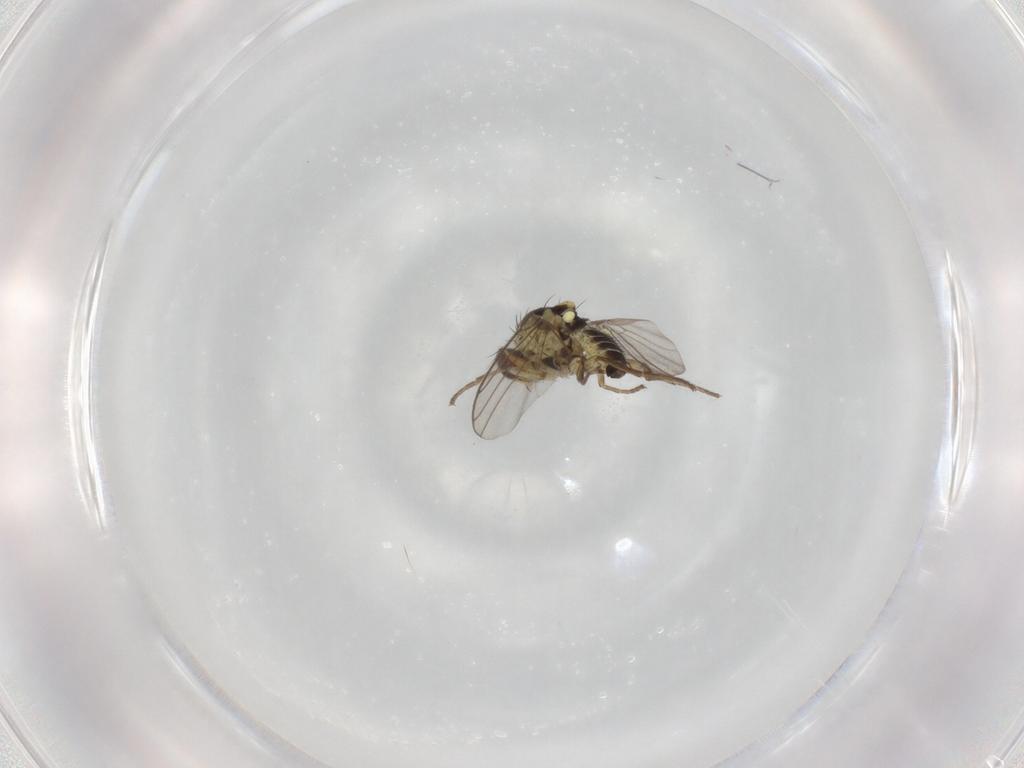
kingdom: Animalia
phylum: Arthropoda
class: Insecta
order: Diptera
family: Agromyzidae
